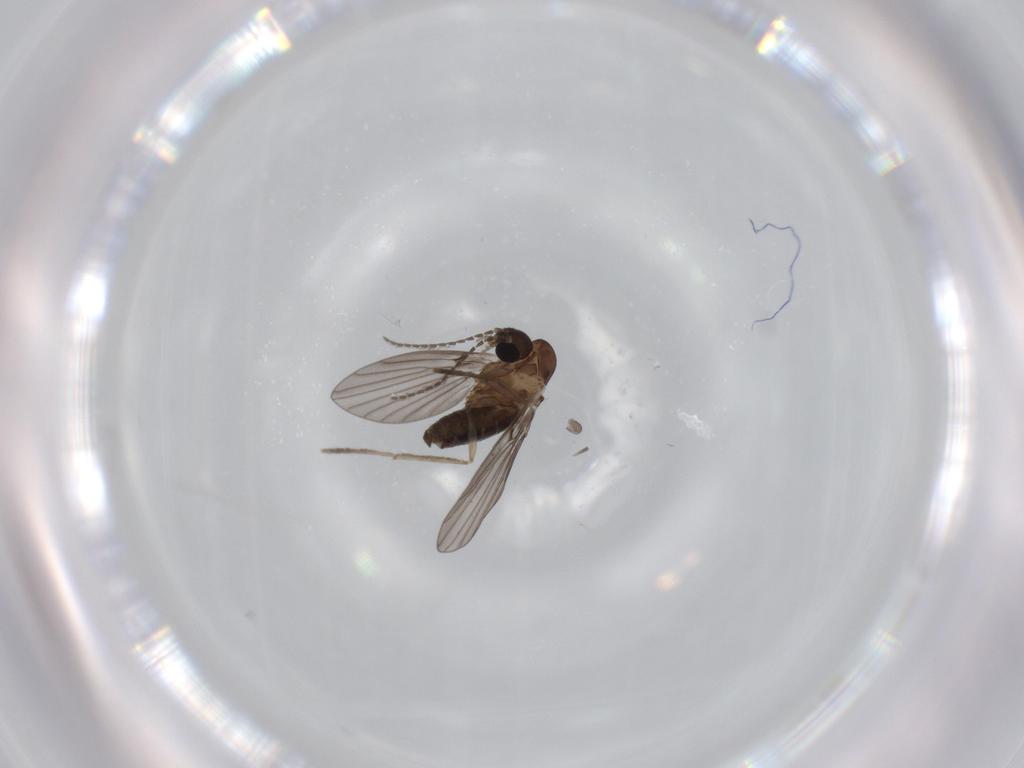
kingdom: Animalia
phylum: Arthropoda
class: Insecta
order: Diptera
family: Psychodidae
